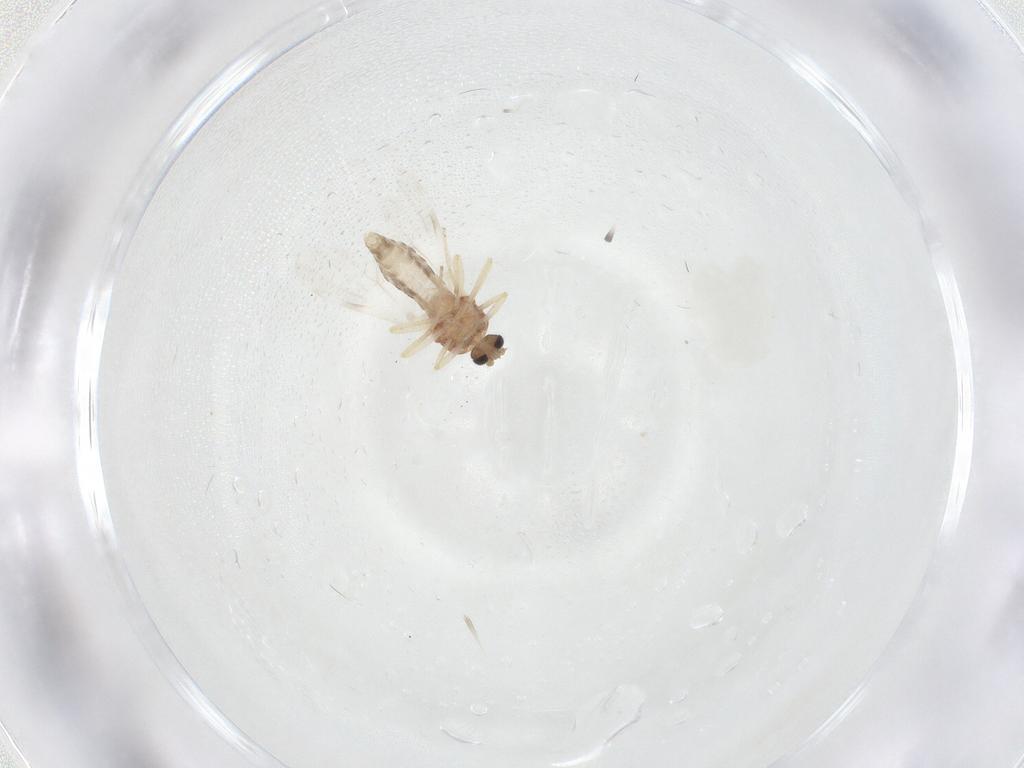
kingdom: Animalia
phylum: Arthropoda
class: Insecta
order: Diptera
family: Ceratopogonidae
